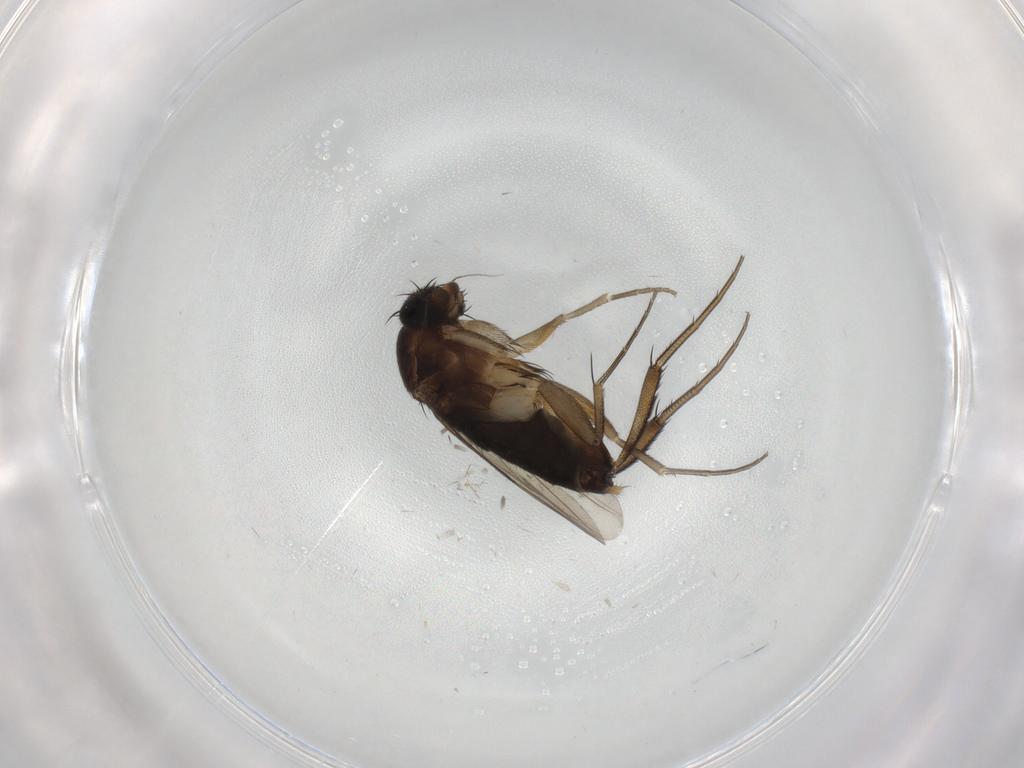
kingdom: Animalia
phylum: Arthropoda
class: Insecta
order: Diptera
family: Phoridae
